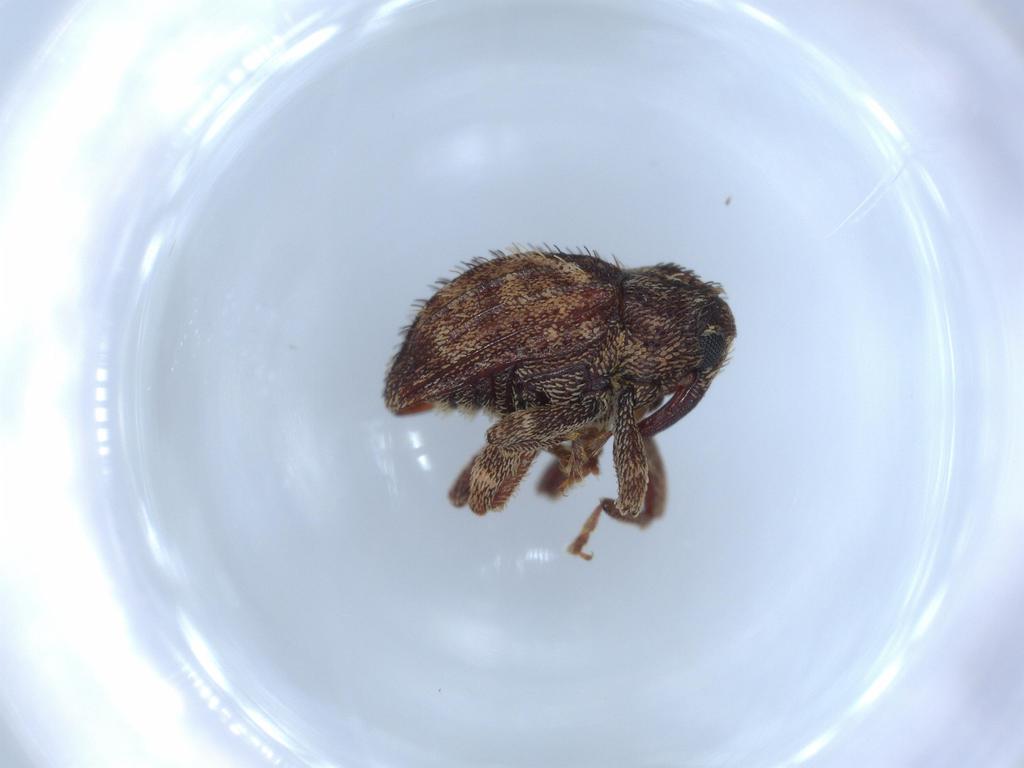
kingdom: Animalia
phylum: Arthropoda
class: Insecta
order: Coleoptera
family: Curculionidae
